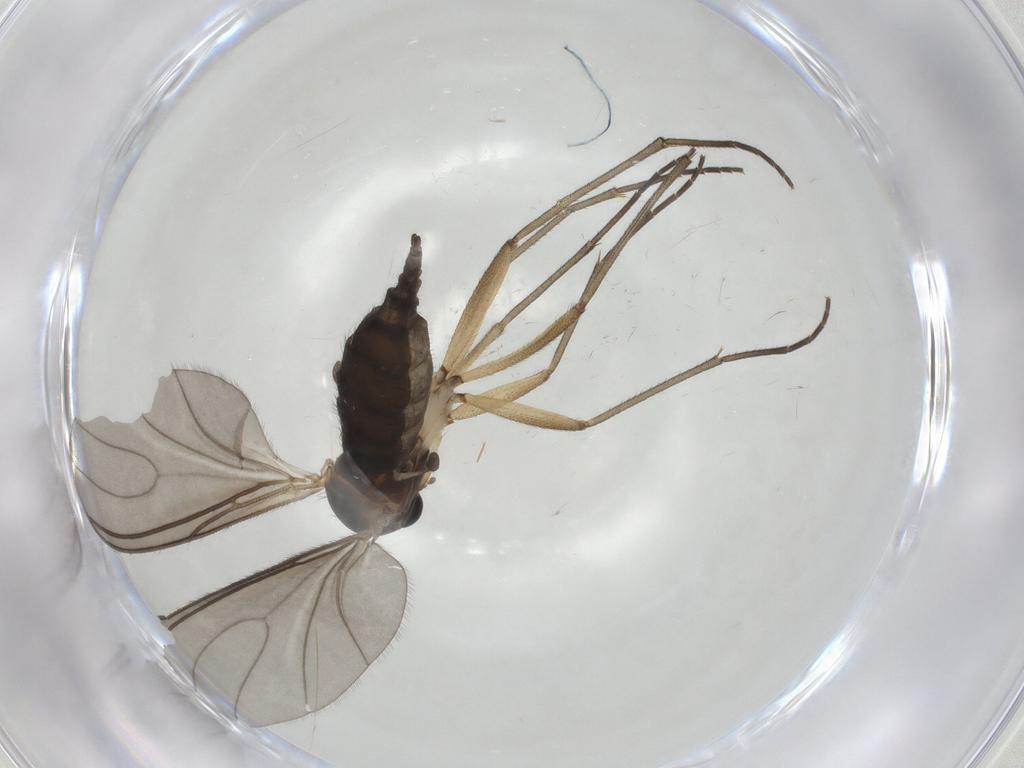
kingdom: Animalia
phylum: Arthropoda
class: Insecta
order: Diptera
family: Sciaridae
